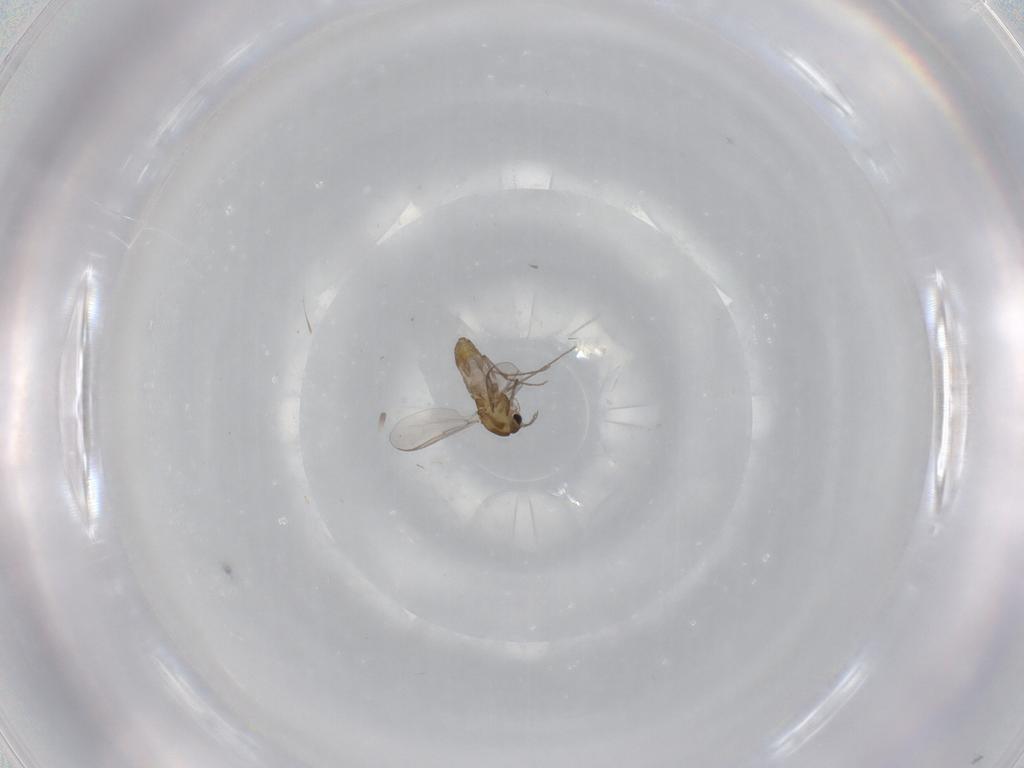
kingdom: Animalia
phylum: Arthropoda
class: Insecta
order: Diptera
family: Chironomidae
